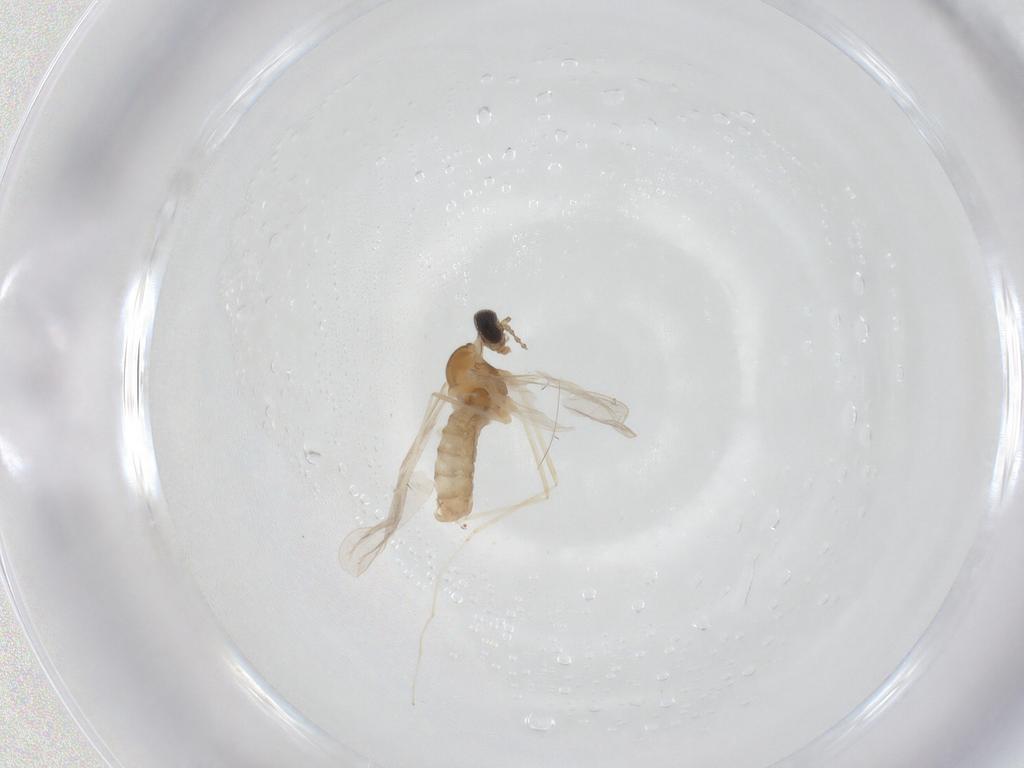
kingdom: Animalia
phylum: Arthropoda
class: Insecta
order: Diptera
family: Cecidomyiidae
